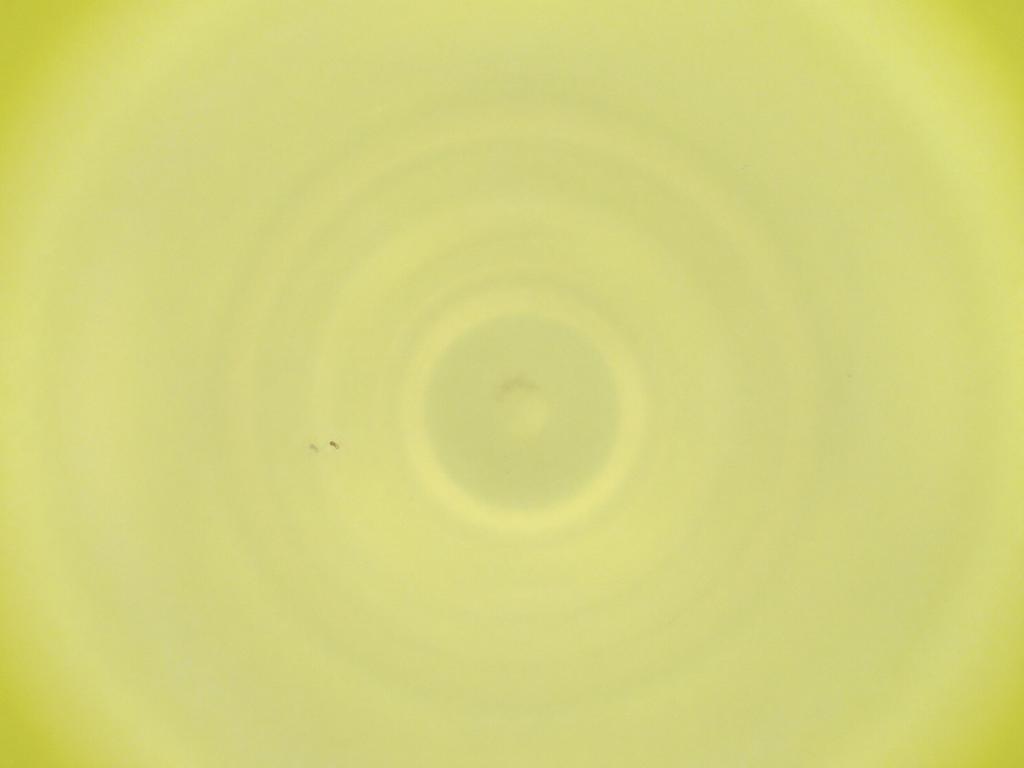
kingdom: Animalia
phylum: Arthropoda
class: Insecta
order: Diptera
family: Cecidomyiidae
